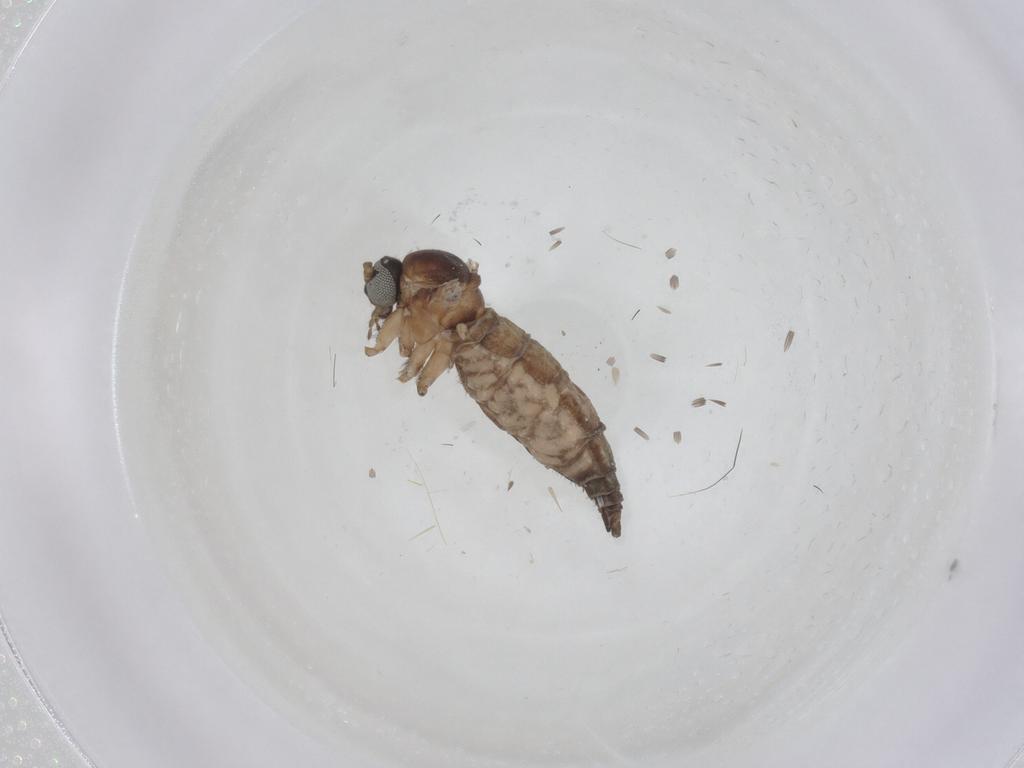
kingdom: Animalia
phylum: Arthropoda
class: Insecta
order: Diptera
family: Sciaridae
